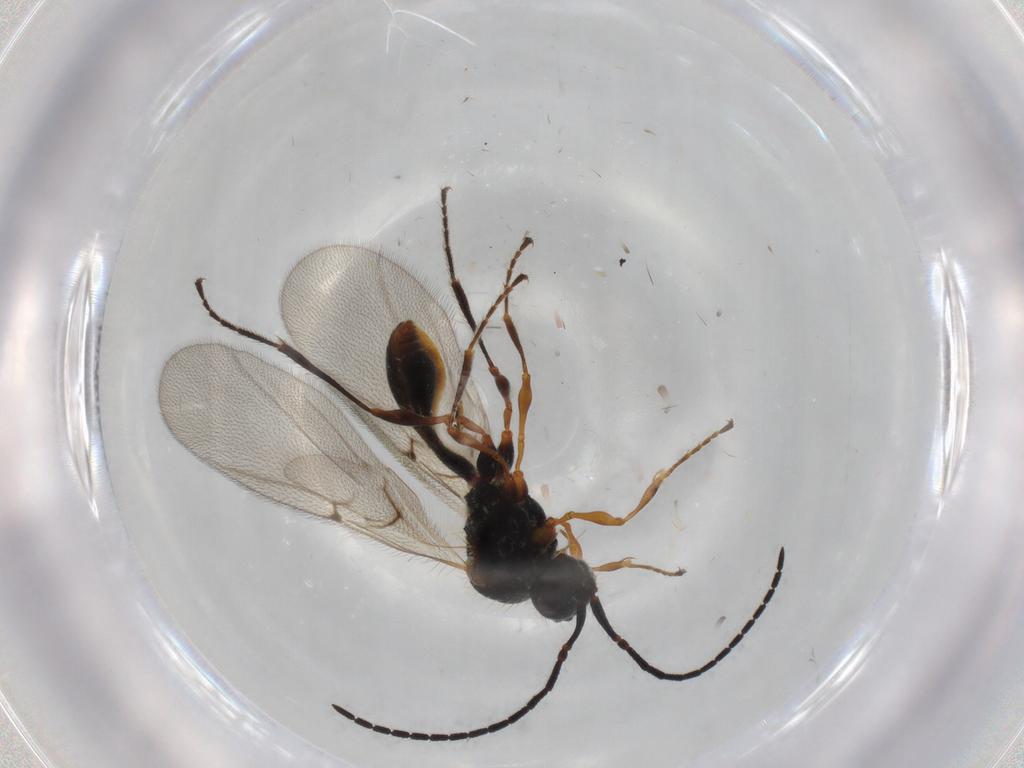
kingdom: Animalia
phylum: Arthropoda
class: Insecta
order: Hymenoptera
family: Diapriidae
